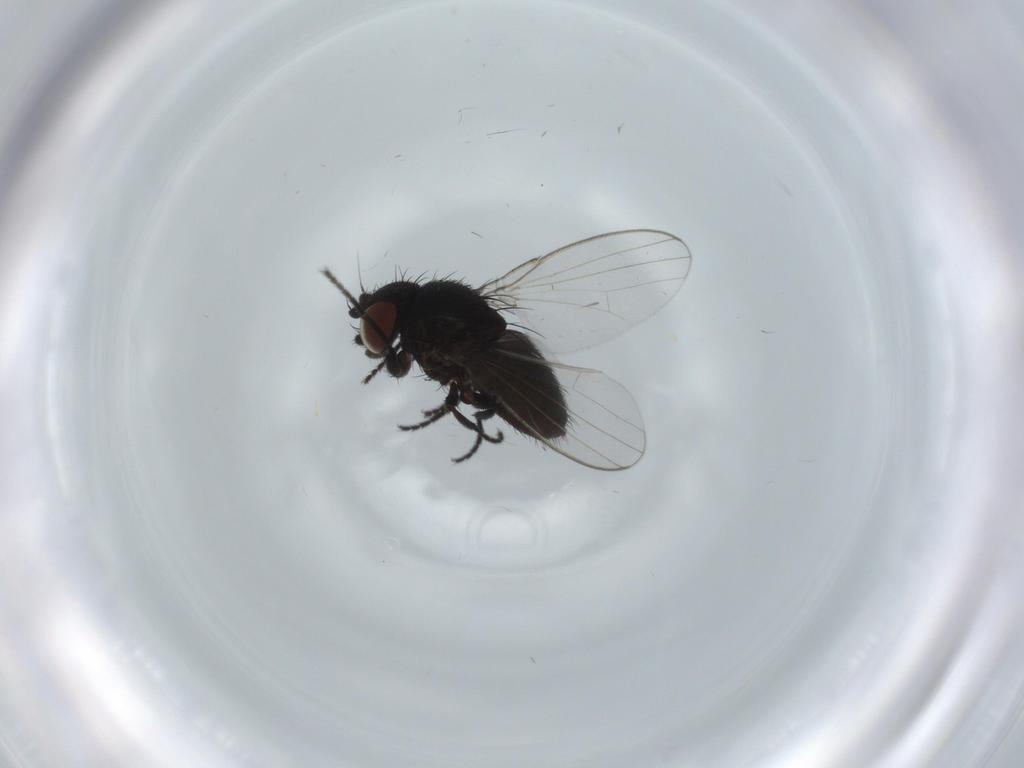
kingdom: Animalia
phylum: Arthropoda
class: Insecta
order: Diptera
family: Milichiidae
